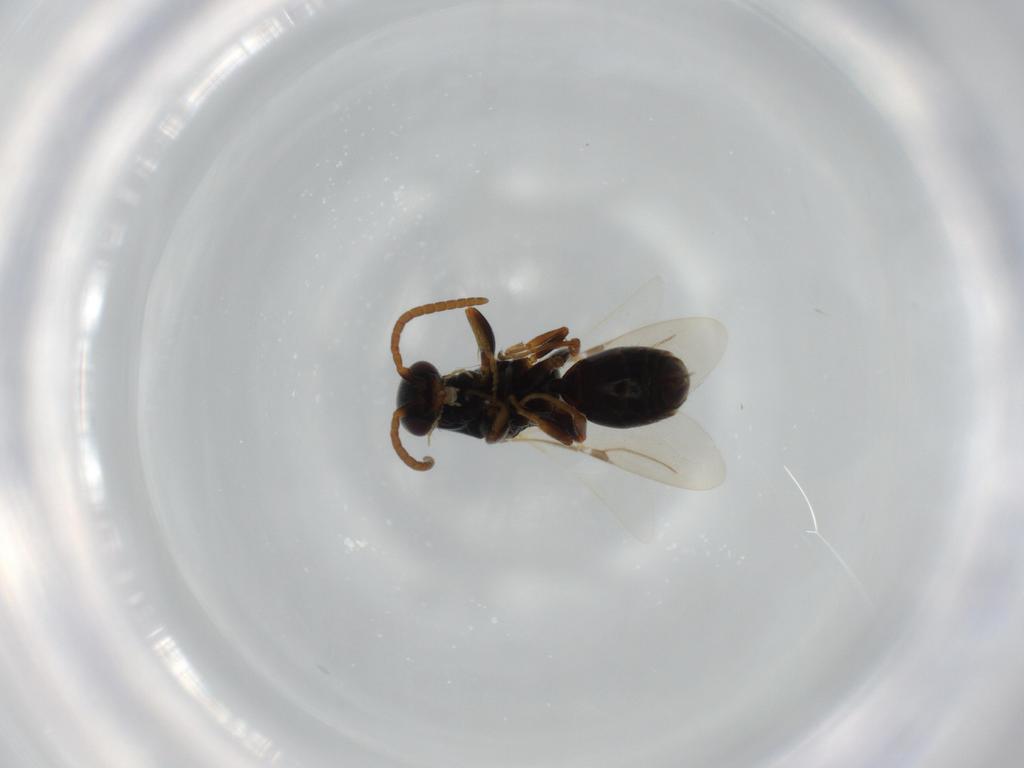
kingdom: Animalia
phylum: Arthropoda
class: Insecta
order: Hymenoptera
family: Bethylidae
